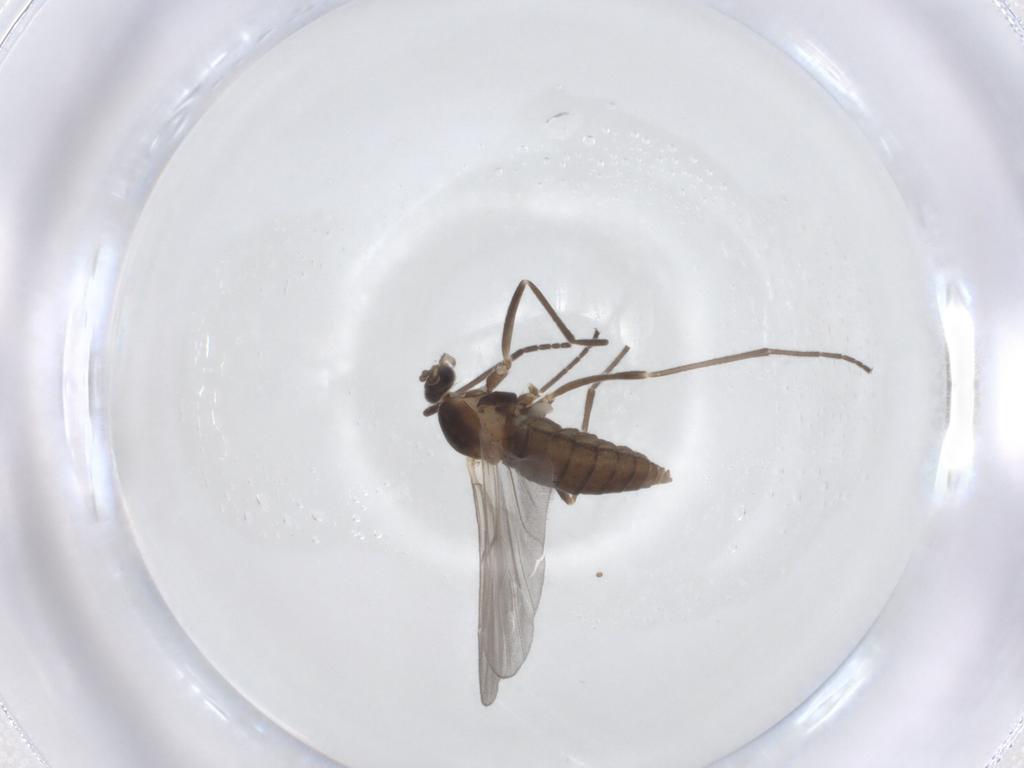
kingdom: Animalia
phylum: Arthropoda
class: Insecta
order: Diptera
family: Cecidomyiidae
